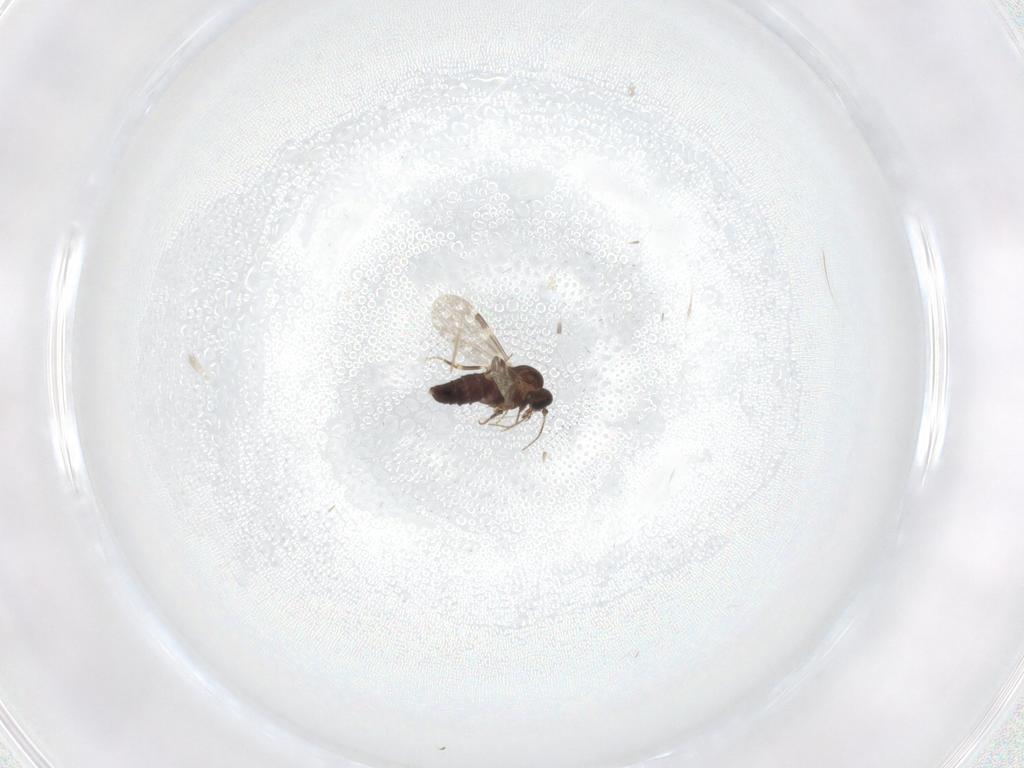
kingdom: Animalia
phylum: Arthropoda
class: Insecta
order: Diptera
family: Ceratopogonidae
